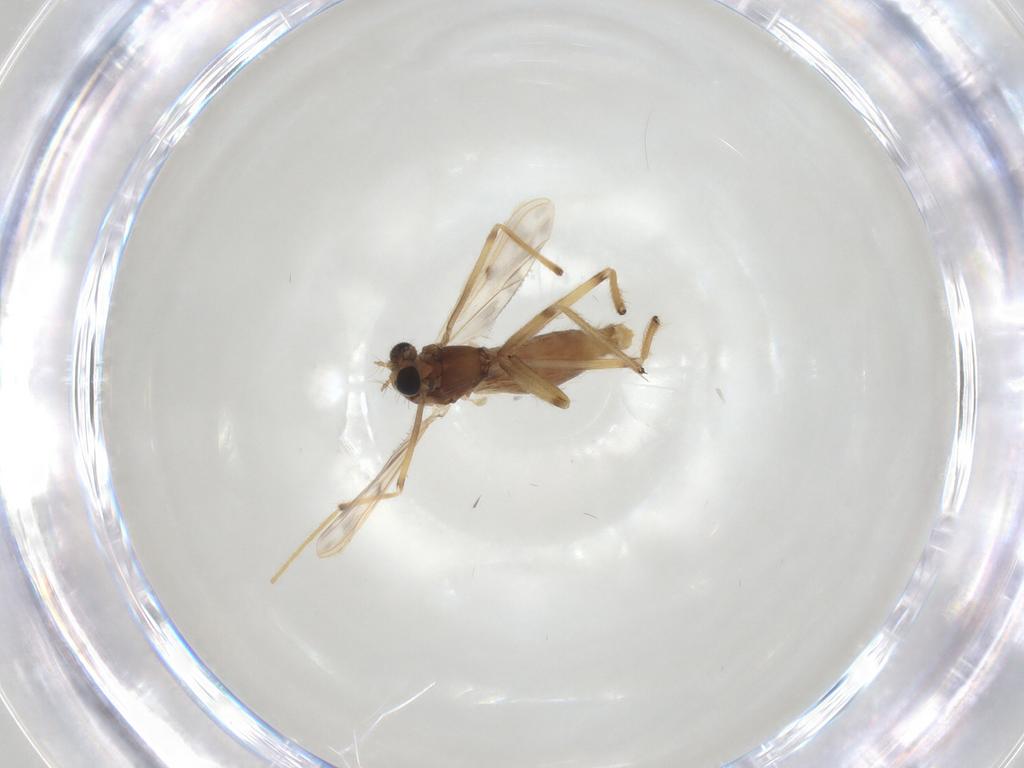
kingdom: Animalia
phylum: Arthropoda
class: Insecta
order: Diptera
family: Chironomidae
